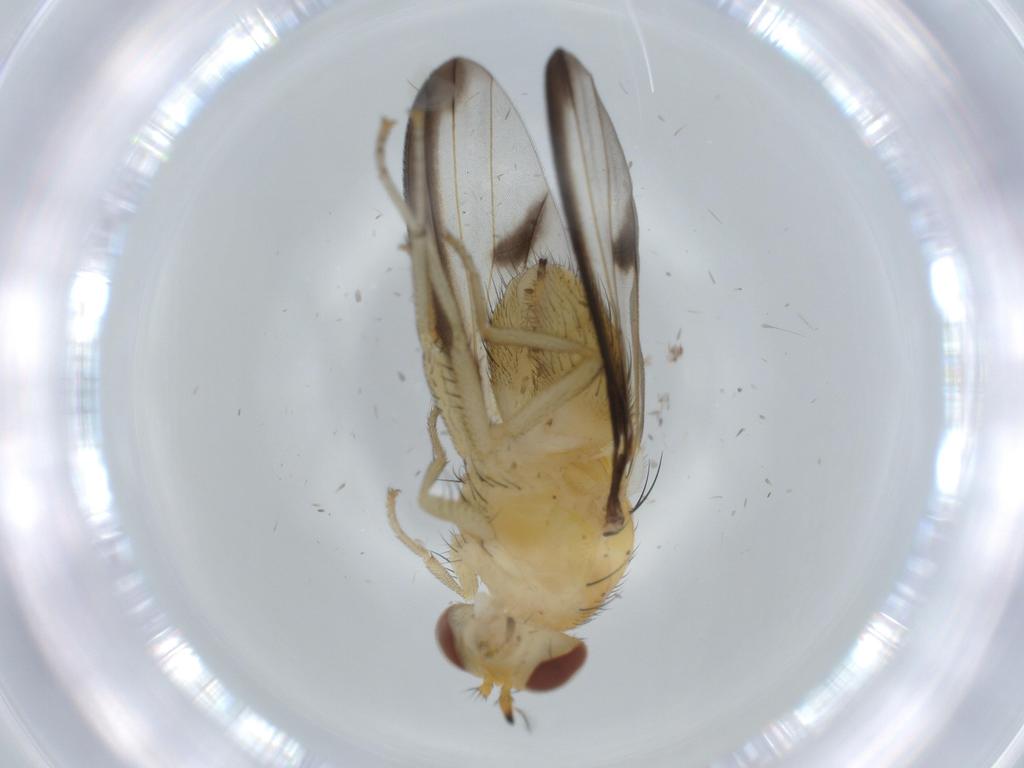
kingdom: Animalia
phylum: Arthropoda
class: Insecta
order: Diptera
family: Lauxaniidae
